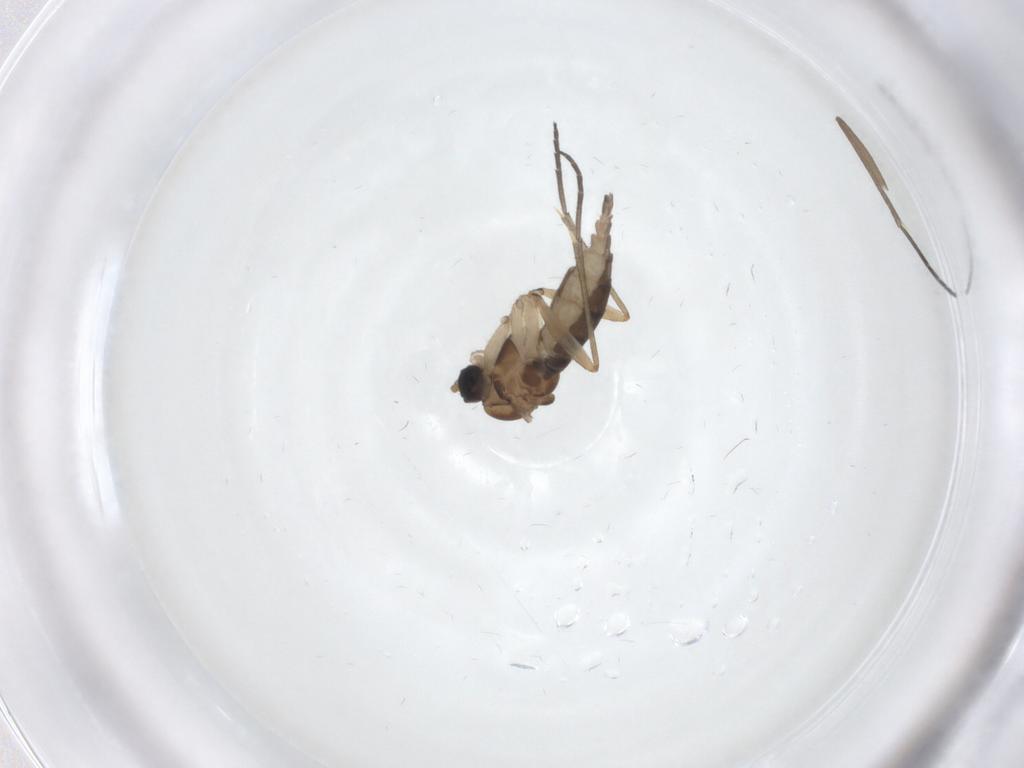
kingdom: Animalia
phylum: Arthropoda
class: Insecta
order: Diptera
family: Sciaridae
